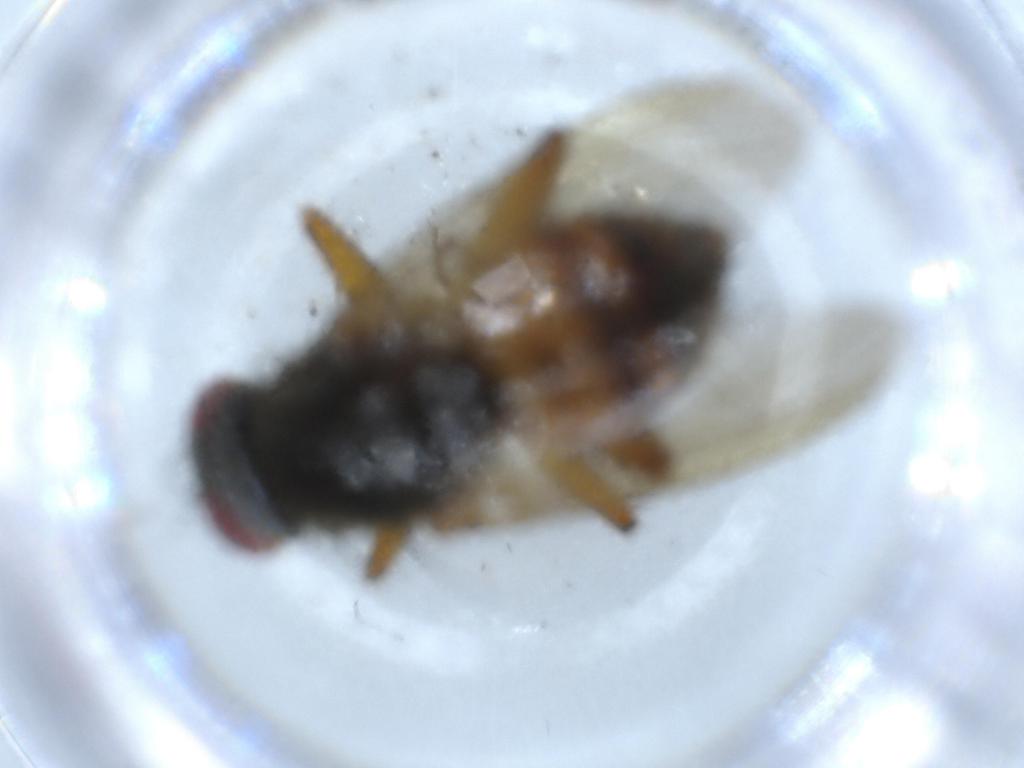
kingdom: Animalia
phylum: Arthropoda
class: Insecta
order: Diptera
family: Muscidae
